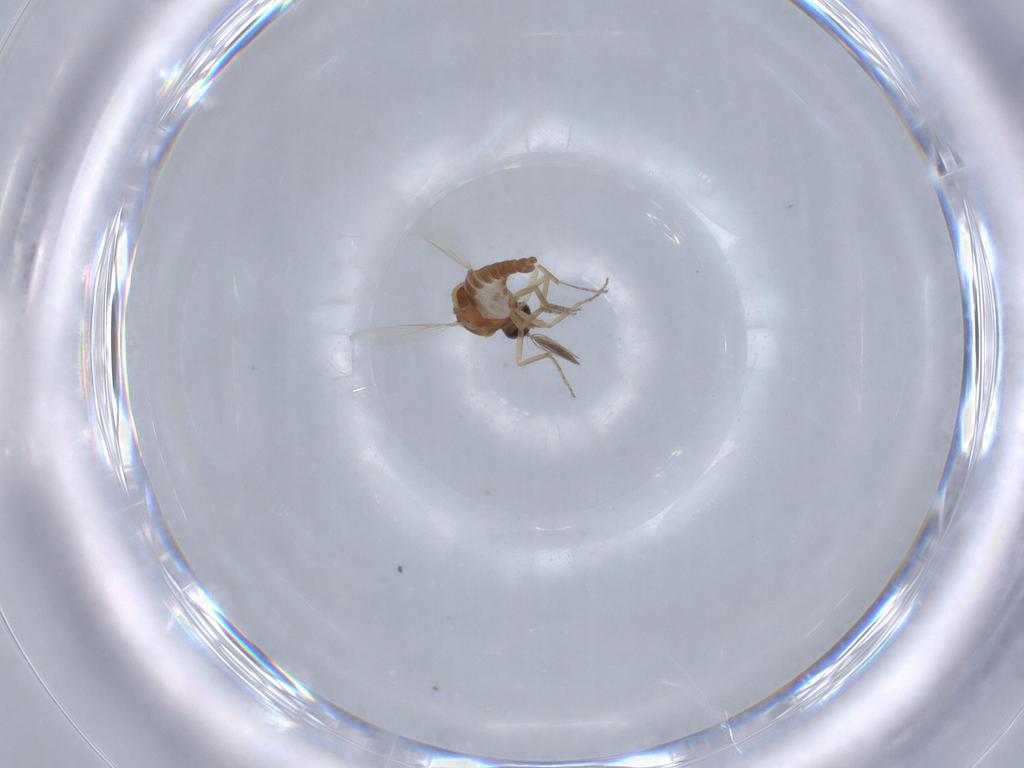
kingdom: Animalia
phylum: Arthropoda
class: Insecta
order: Diptera
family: Ceratopogonidae
